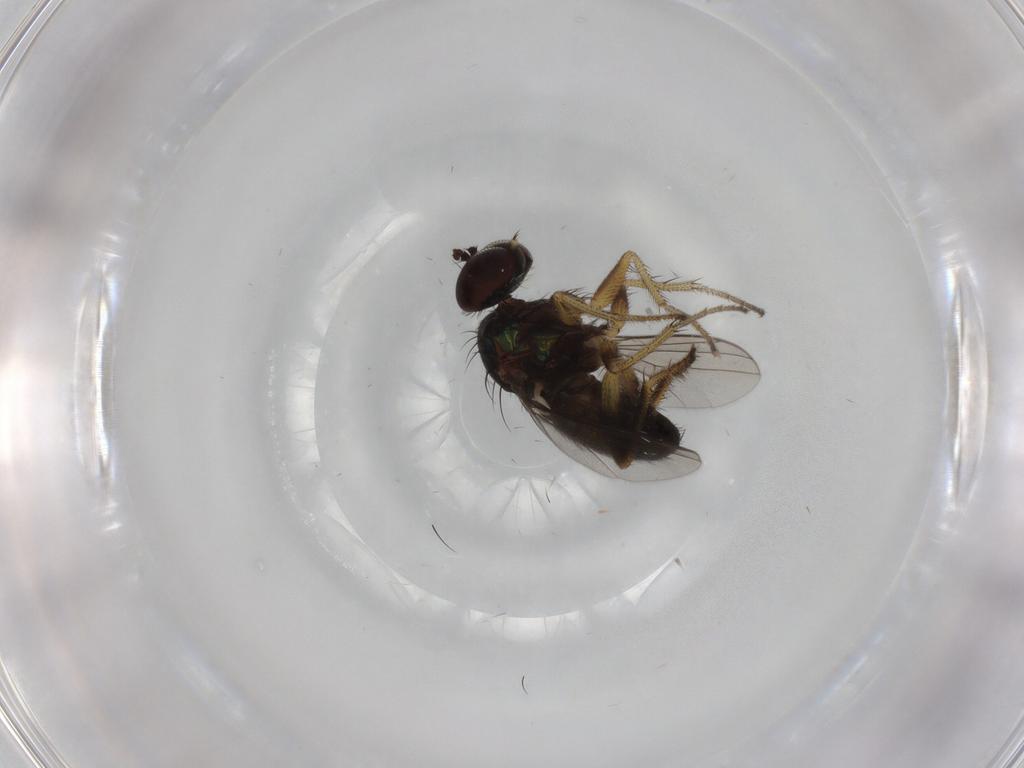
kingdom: Animalia
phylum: Arthropoda
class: Insecta
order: Diptera
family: Dolichopodidae
